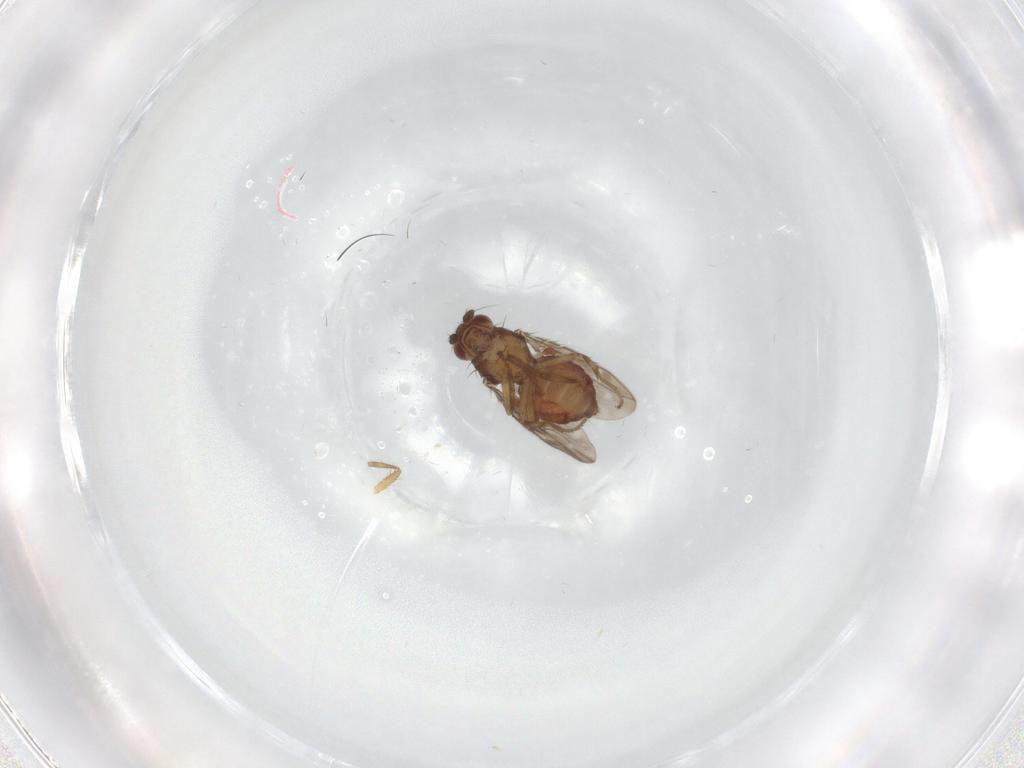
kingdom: Animalia
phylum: Arthropoda
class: Insecta
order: Diptera
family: Sphaeroceridae
